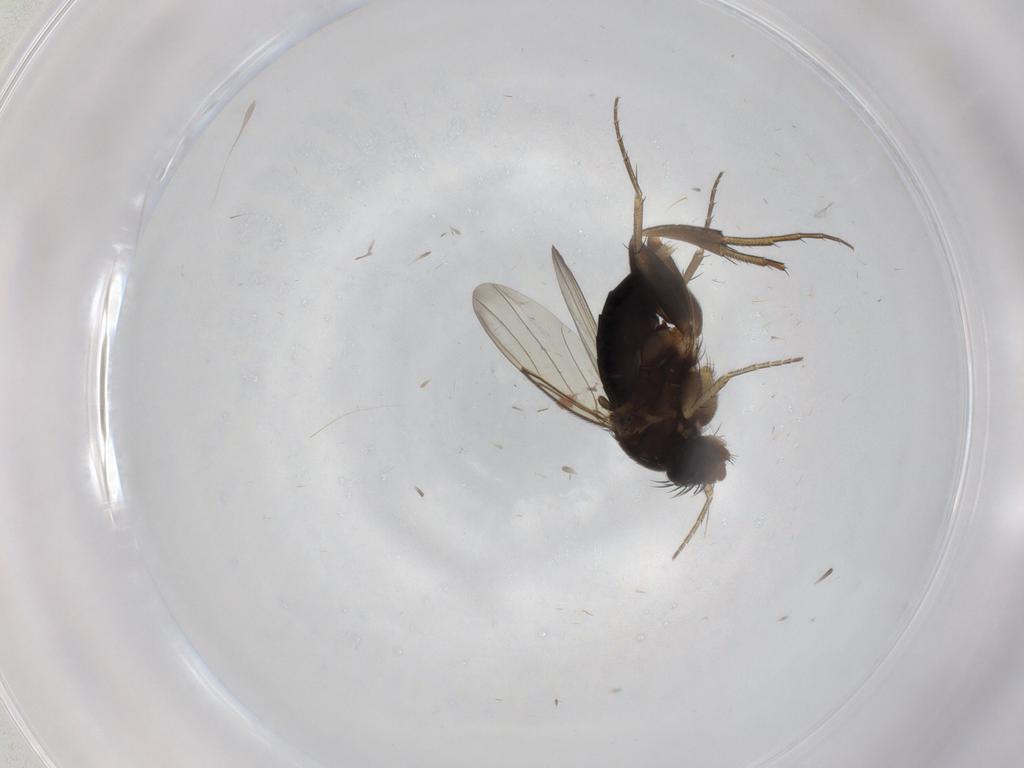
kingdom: Animalia
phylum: Arthropoda
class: Insecta
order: Diptera
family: Phoridae
